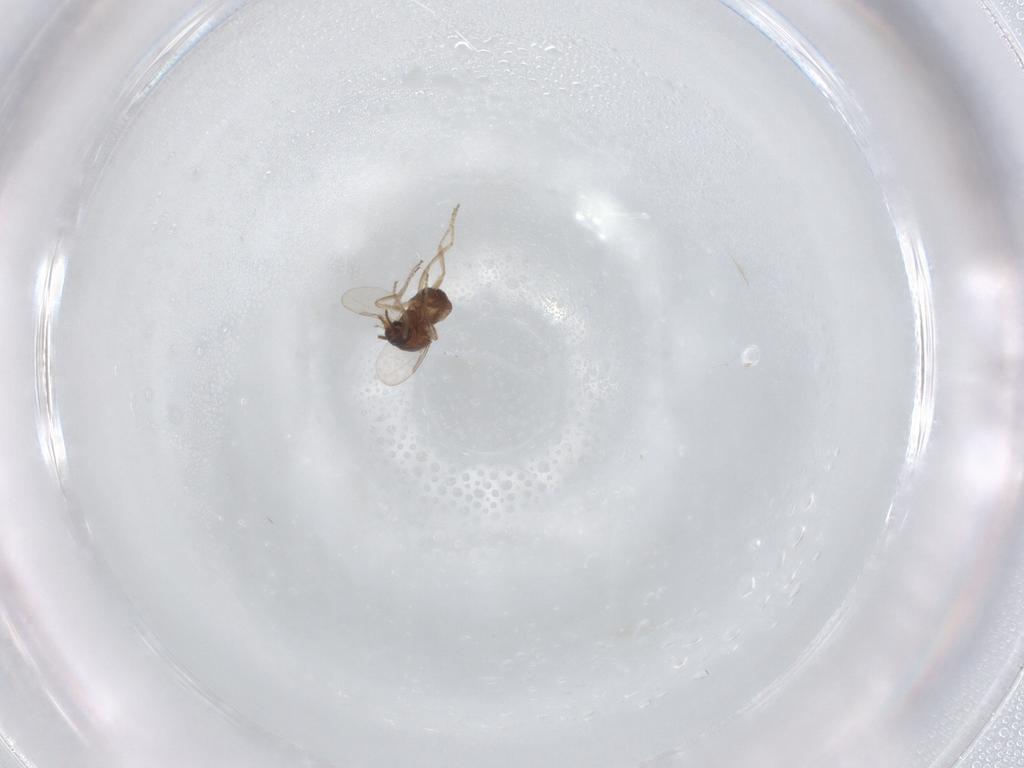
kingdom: Animalia
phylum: Arthropoda
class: Insecta
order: Diptera
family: Ceratopogonidae
